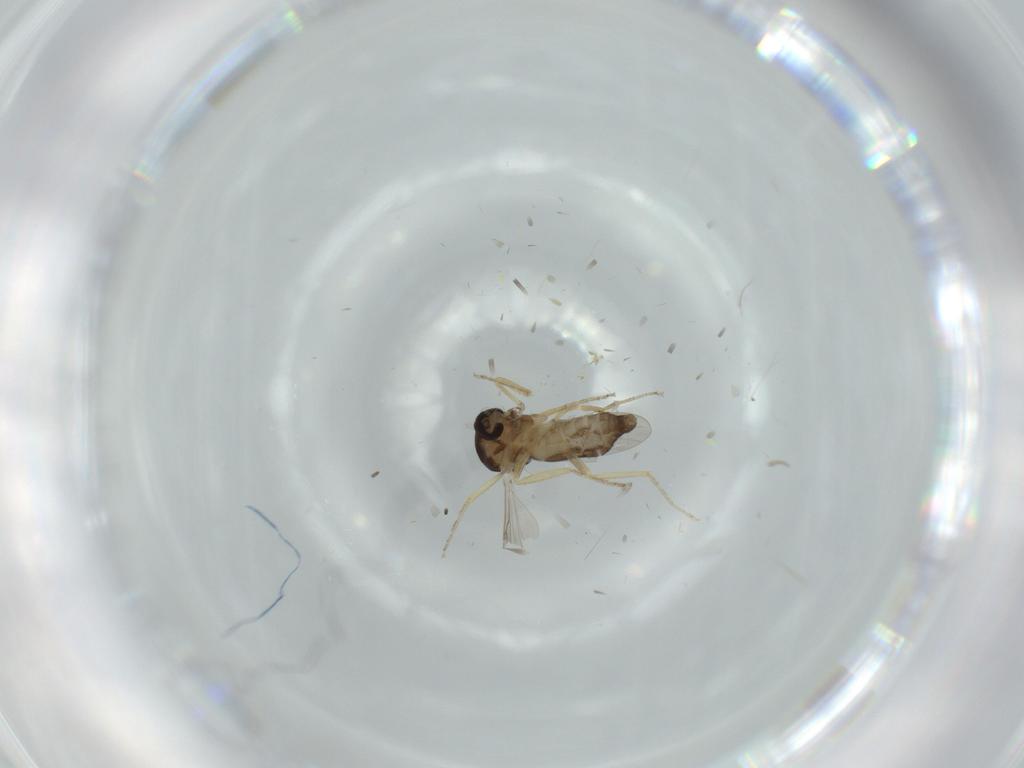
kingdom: Animalia
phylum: Arthropoda
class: Insecta
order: Diptera
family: Ceratopogonidae
